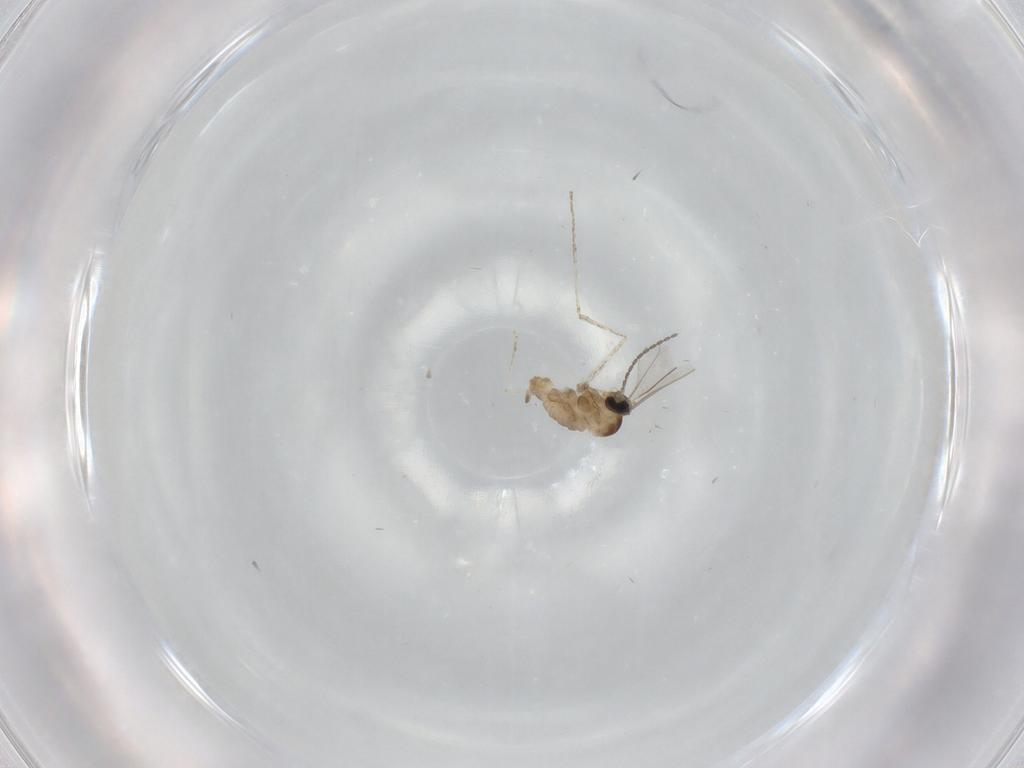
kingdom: Animalia
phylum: Arthropoda
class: Insecta
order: Diptera
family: Cecidomyiidae
